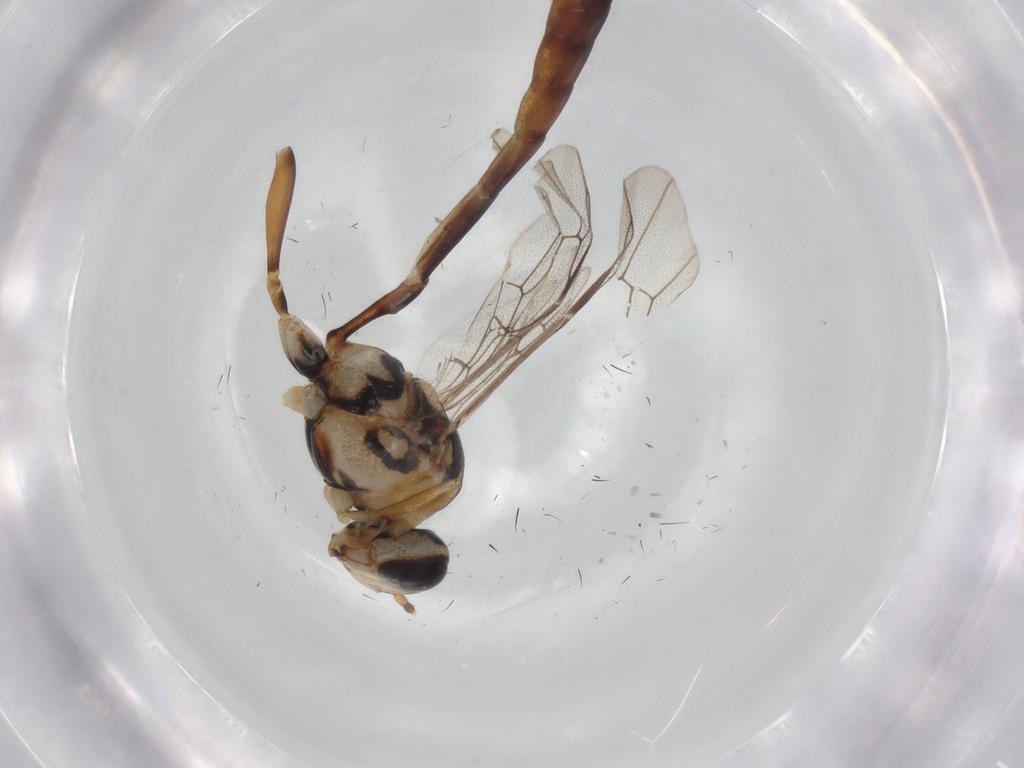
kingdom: Animalia
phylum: Arthropoda
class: Insecta
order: Hymenoptera
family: Ichneumonidae
